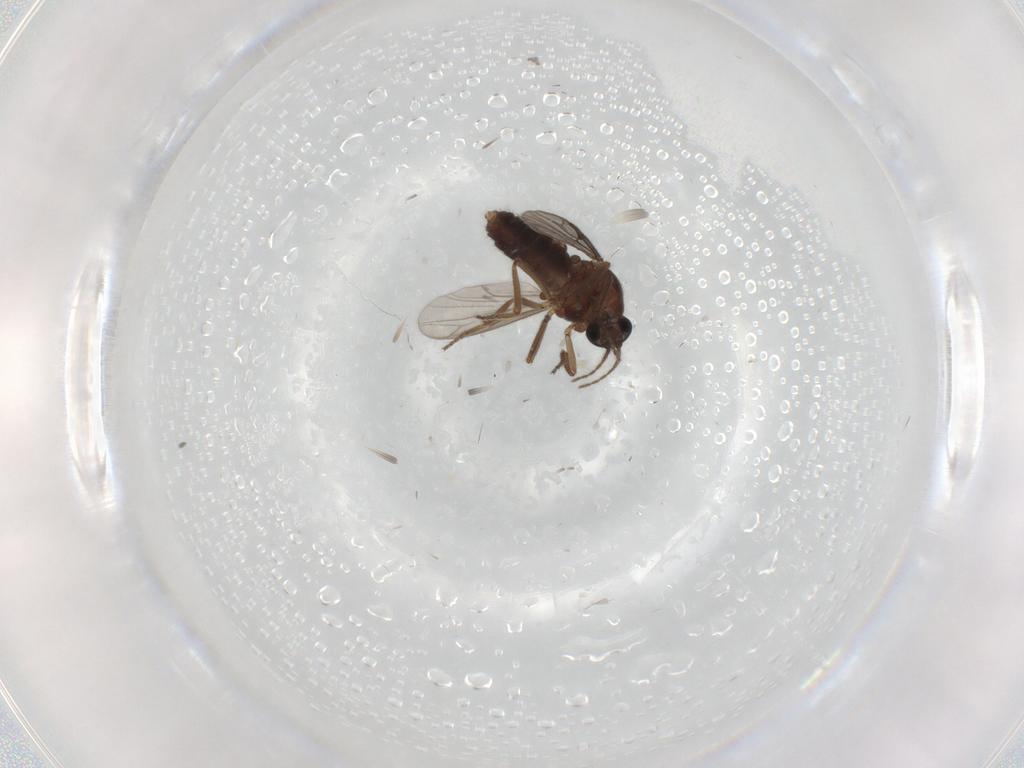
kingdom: Animalia
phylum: Arthropoda
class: Insecta
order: Diptera
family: Ceratopogonidae
